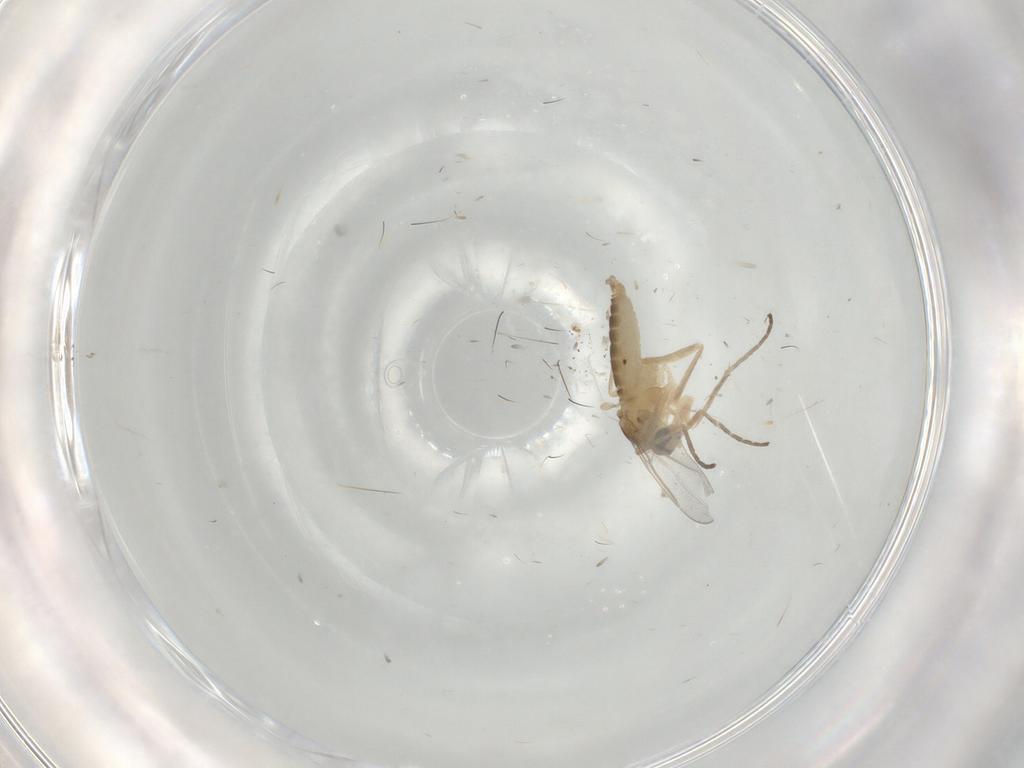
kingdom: Animalia
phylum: Arthropoda
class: Insecta
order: Diptera
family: Cecidomyiidae
